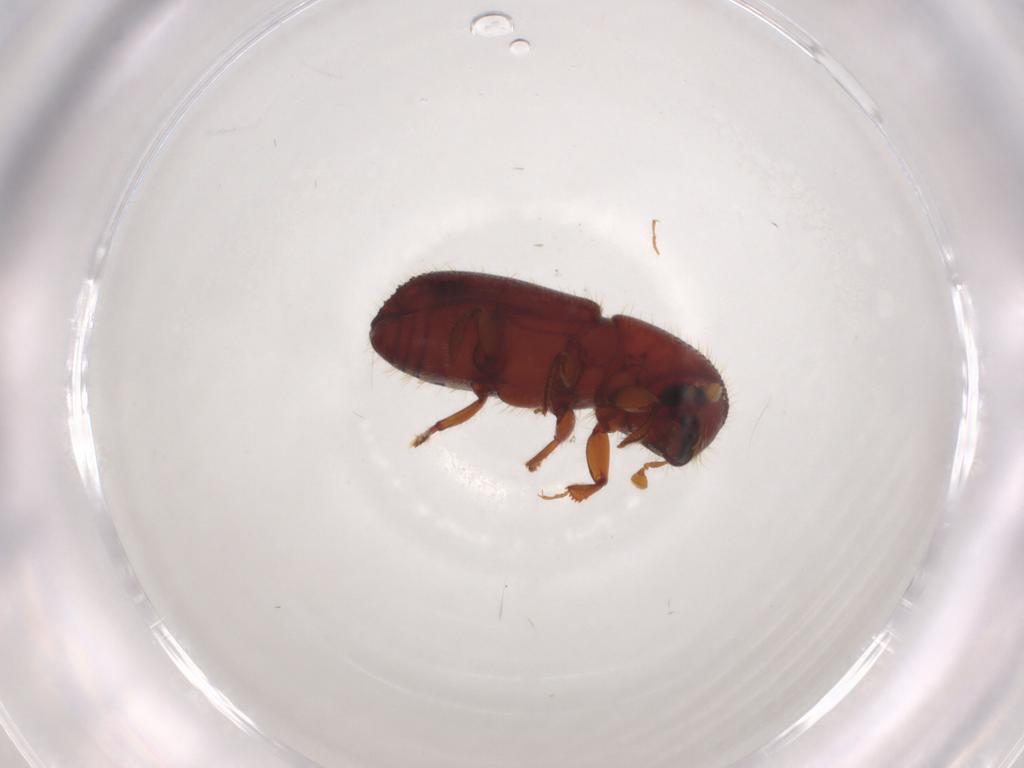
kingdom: Animalia
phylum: Arthropoda
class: Insecta
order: Coleoptera
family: Curculionidae
